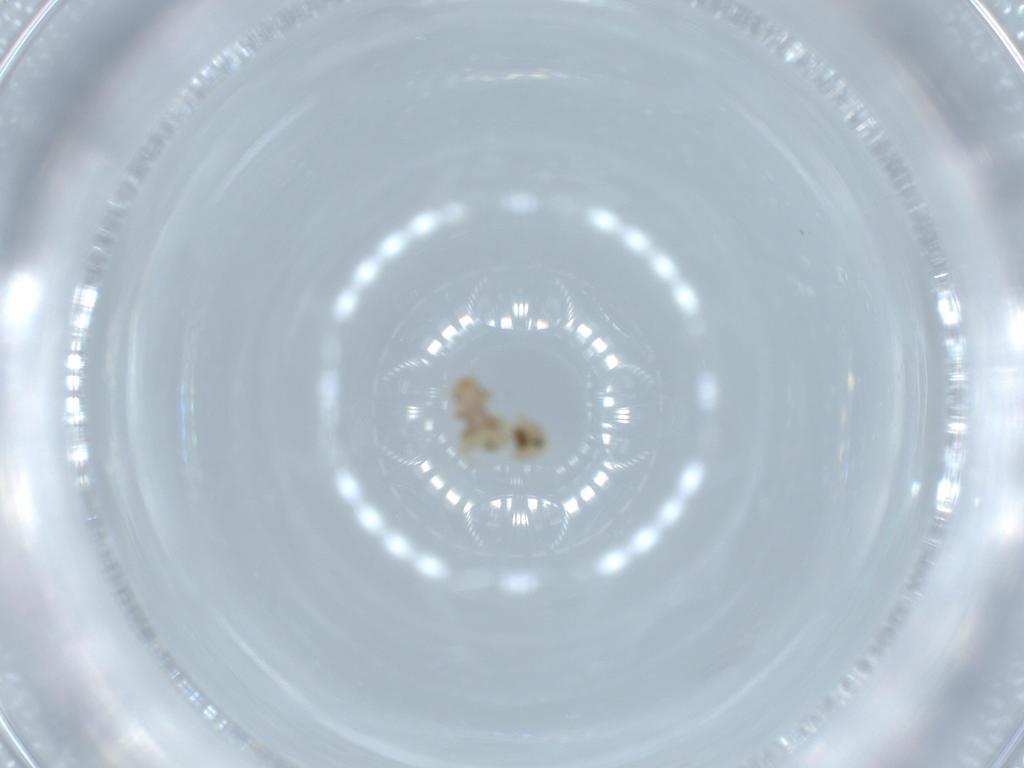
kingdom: Animalia
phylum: Arthropoda
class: Insecta
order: Psocodea
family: Liposcelididae
